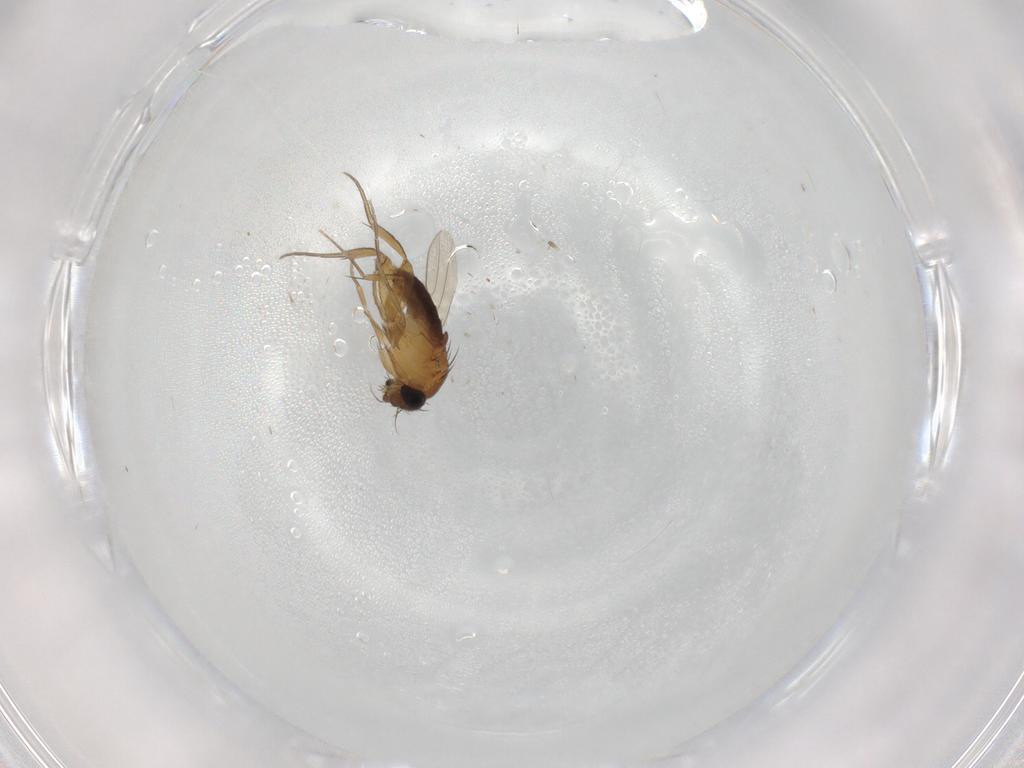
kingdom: Animalia
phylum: Arthropoda
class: Insecta
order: Diptera
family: Phoridae
